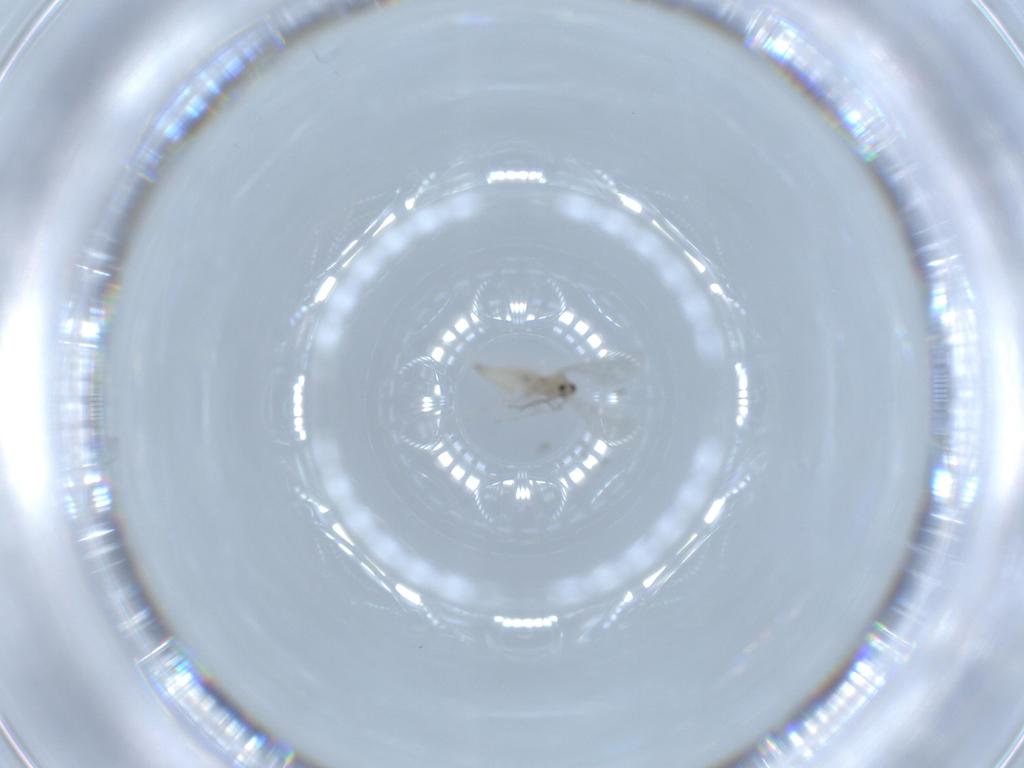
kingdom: Animalia
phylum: Arthropoda
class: Insecta
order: Diptera
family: Cecidomyiidae
